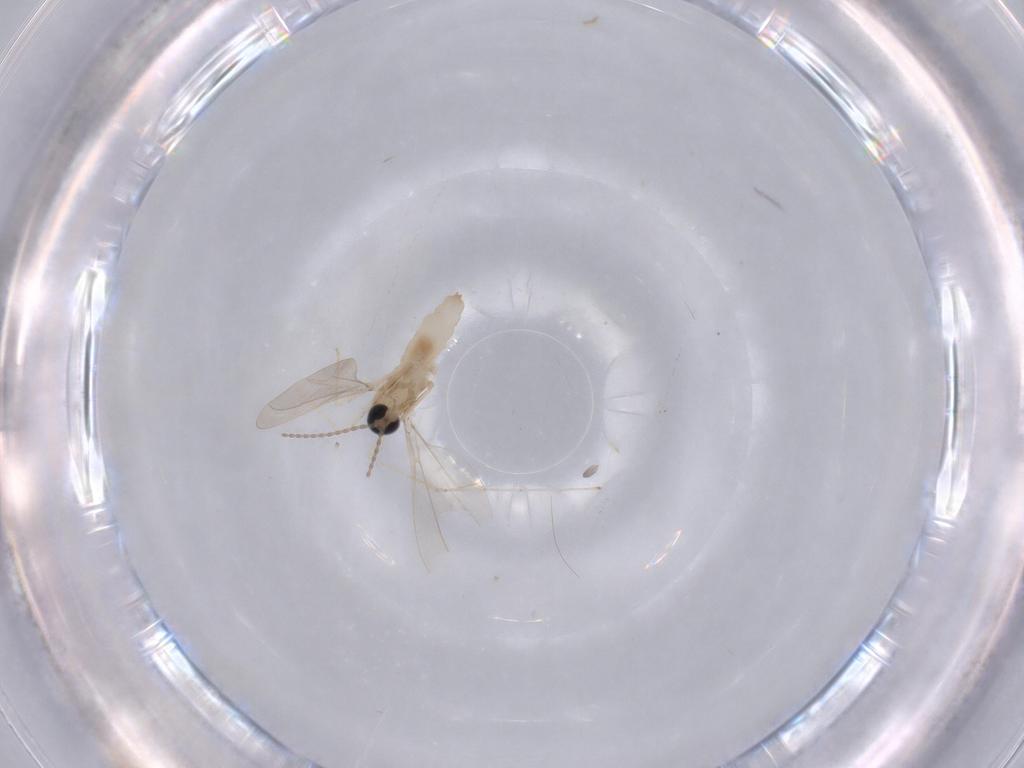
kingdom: Animalia
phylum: Arthropoda
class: Insecta
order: Diptera
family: Cecidomyiidae
